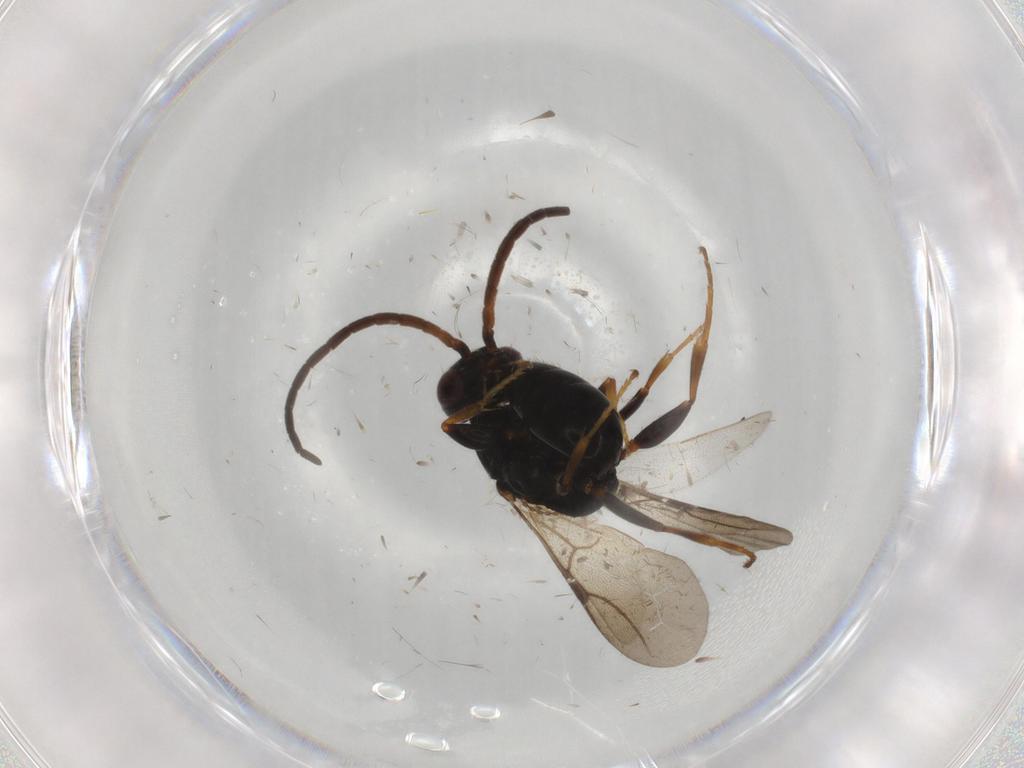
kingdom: Animalia
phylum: Arthropoda
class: Insecta
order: Hymenoptera
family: Bethylidae
